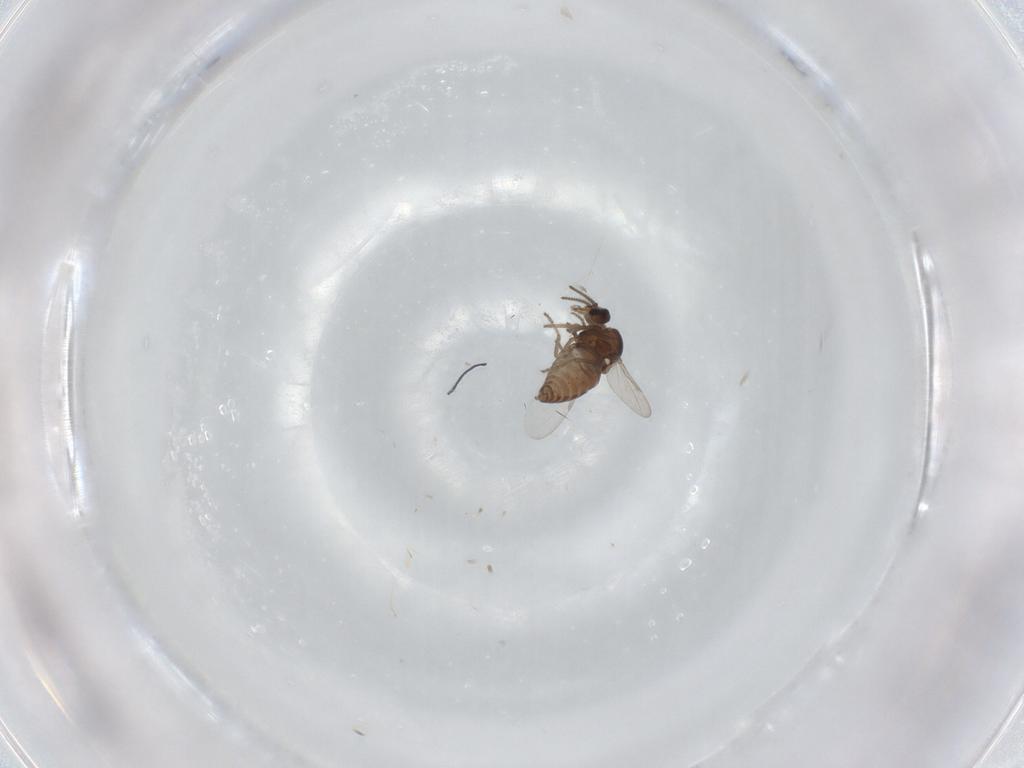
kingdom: Animalia
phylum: Arthropoda
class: Insecta
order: Diptera
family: Ceratopogonidae
